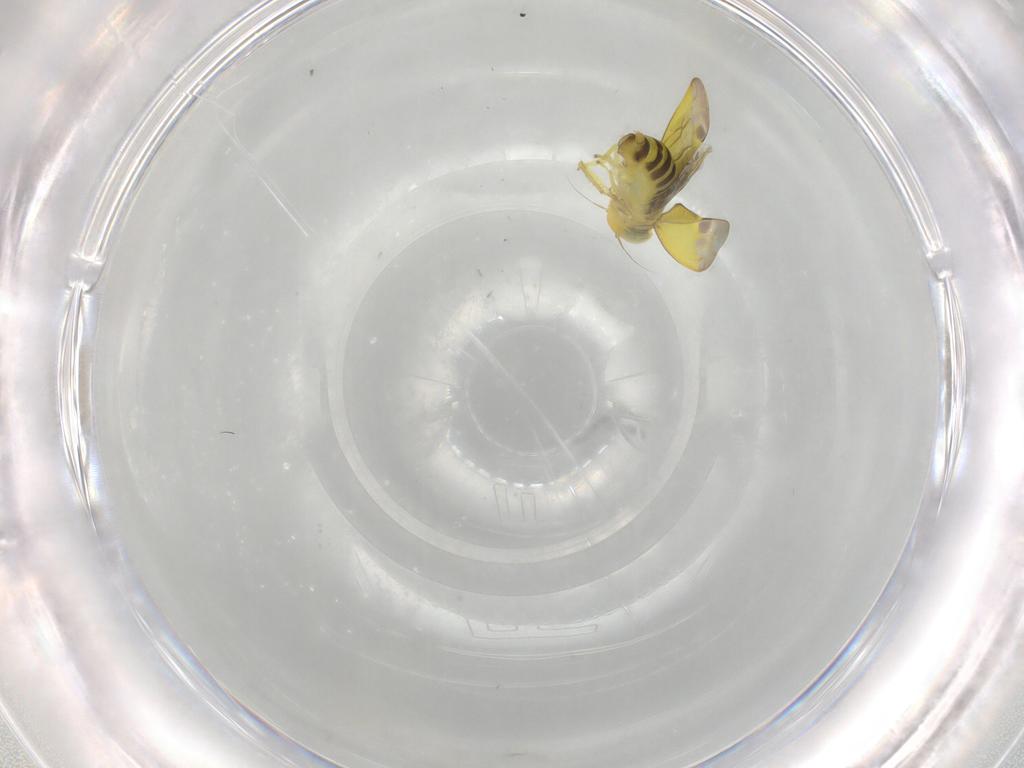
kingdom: Animalia
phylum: Arthropoda
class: Insecta
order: Hemiptera
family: Cicadellidae
